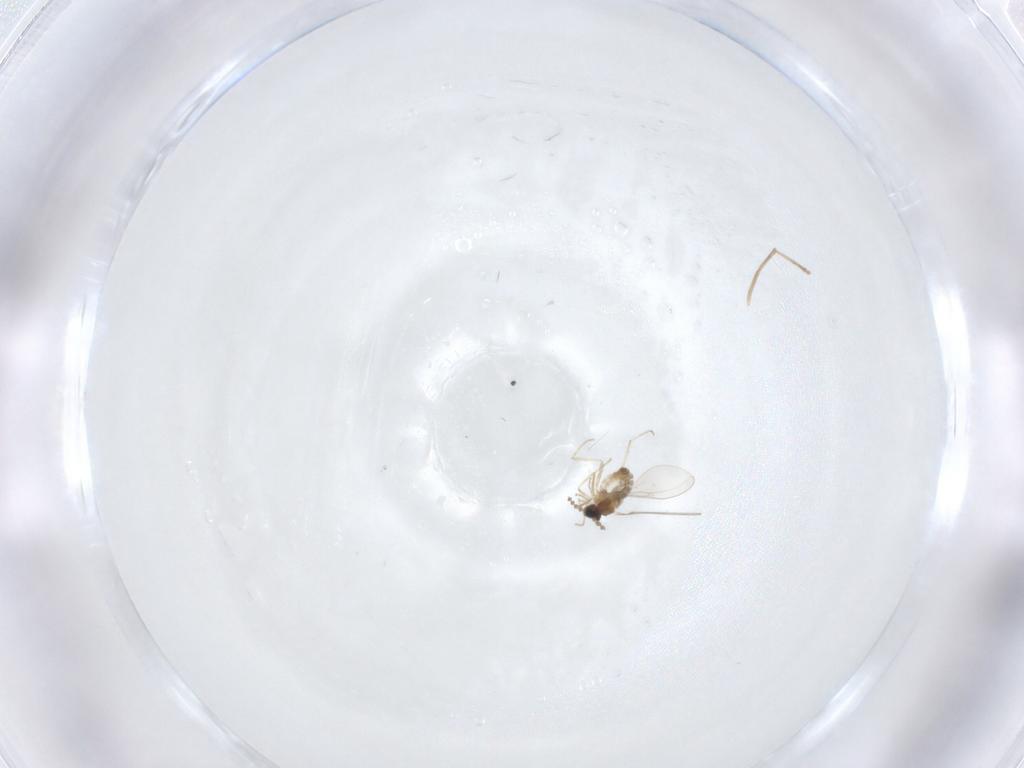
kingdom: Animalia
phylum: Arthropoda
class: Insecta
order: Diptera
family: Cecidomyiidae
